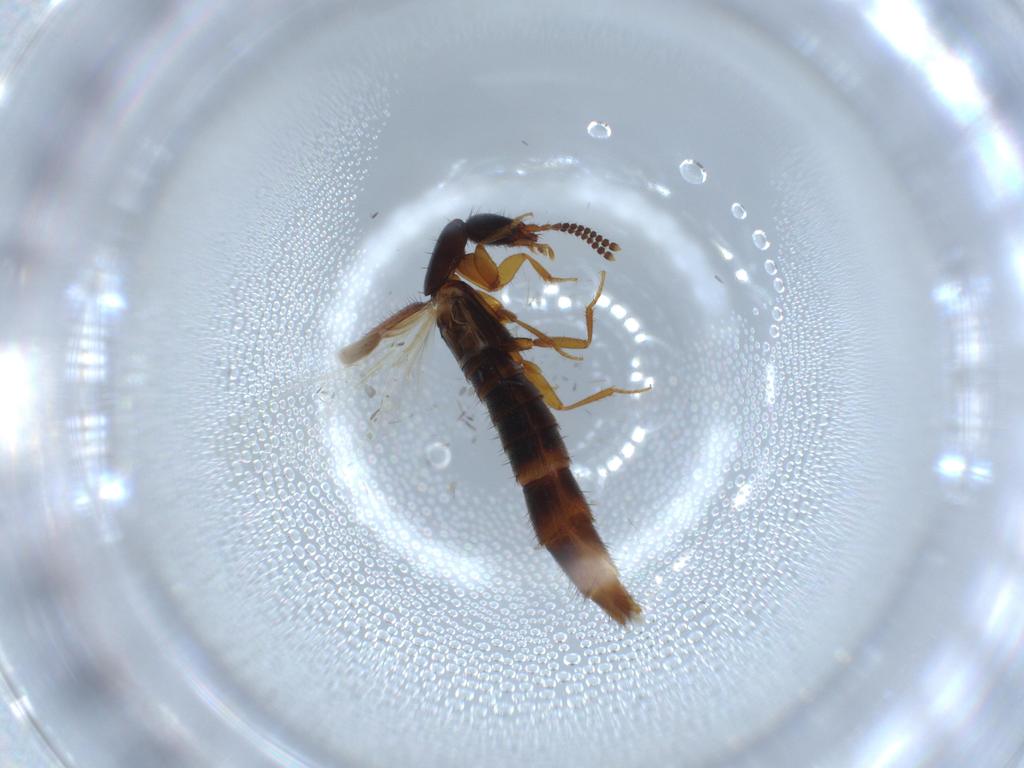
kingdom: Animalia
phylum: Arthropoda
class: Insecta
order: Coleoptera
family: Staphylinidae
